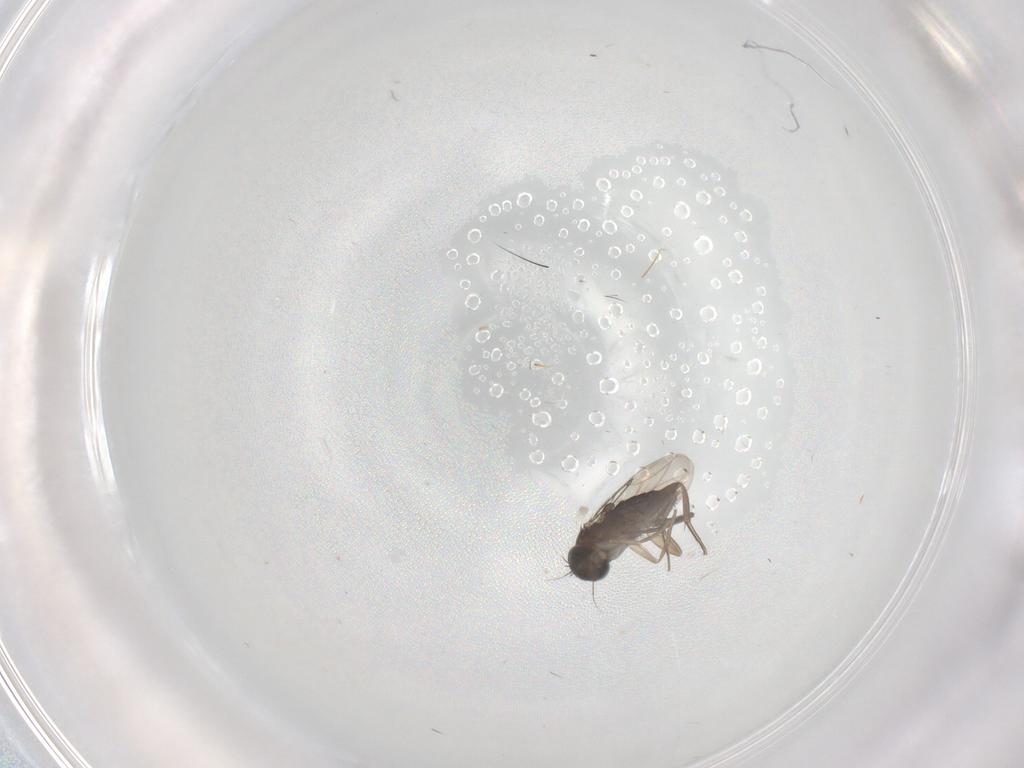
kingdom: Animalia
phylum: Arthropoda
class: Insecta
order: Diptera
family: Phoridae
